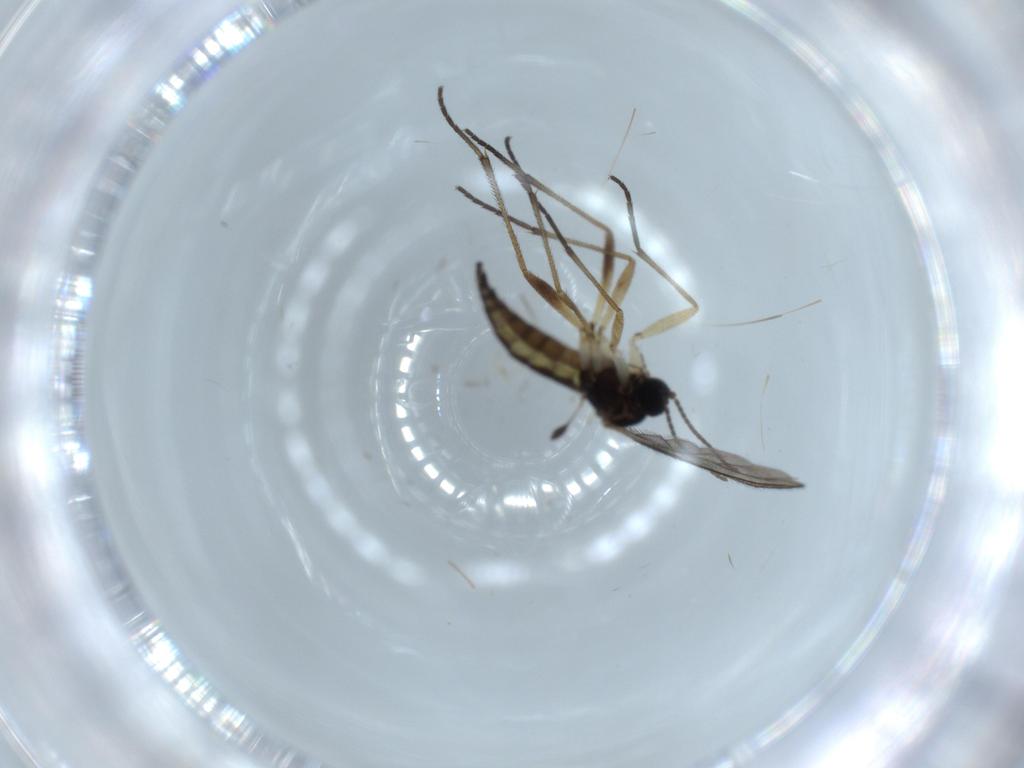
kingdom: Animalia
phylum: Arthropoda
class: Insecta
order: Diptera
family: Sciaridae
